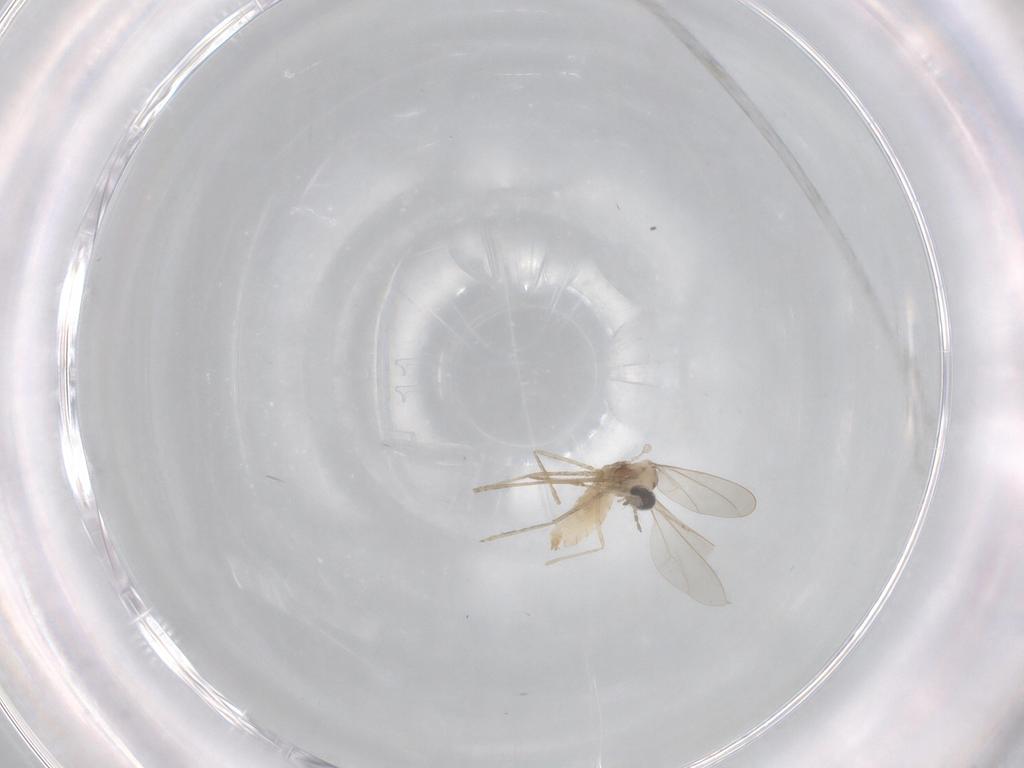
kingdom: Animalia
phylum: Arthropoda
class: Insecta
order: Diptera
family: Cecidomyiidae
